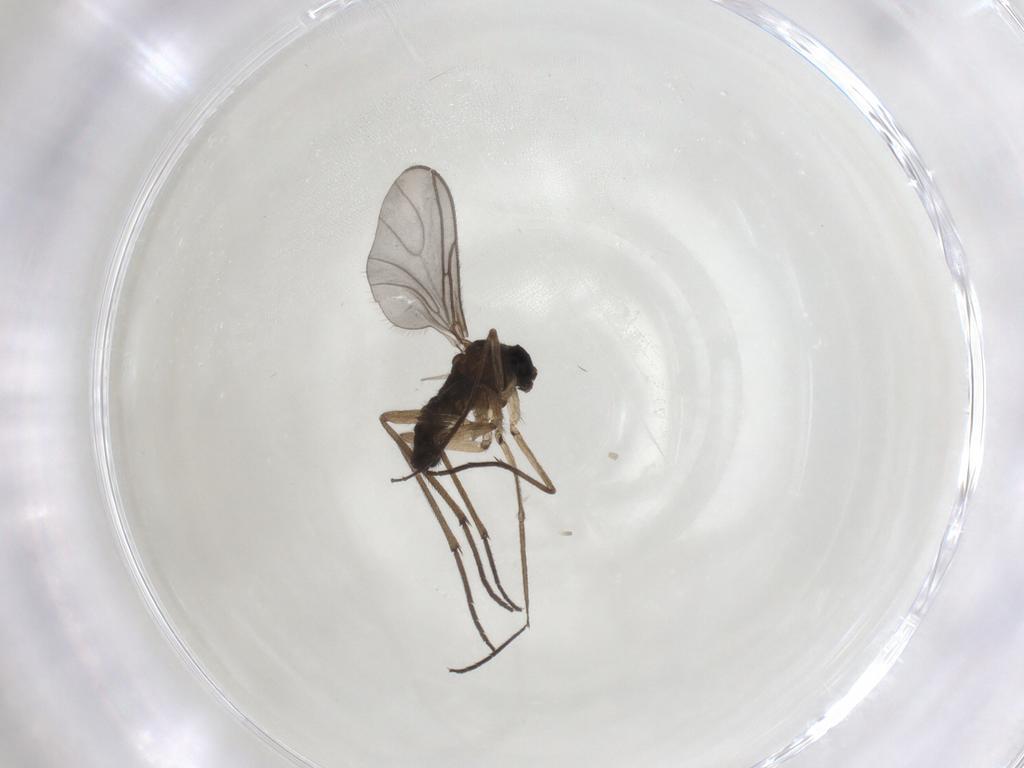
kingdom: Animalia
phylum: Arthropoda
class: Insecta
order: Diptera
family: Sciaridae
